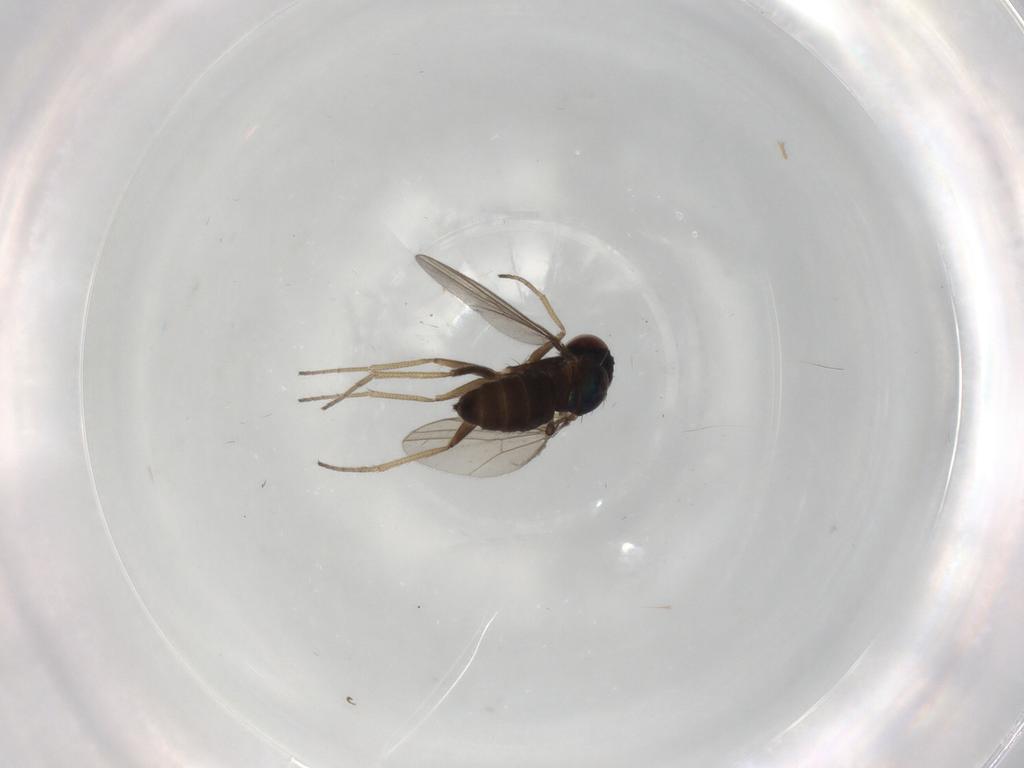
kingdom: Animalia
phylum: Arthropoda
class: Insecta
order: Diptera
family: Dolichopodidae
